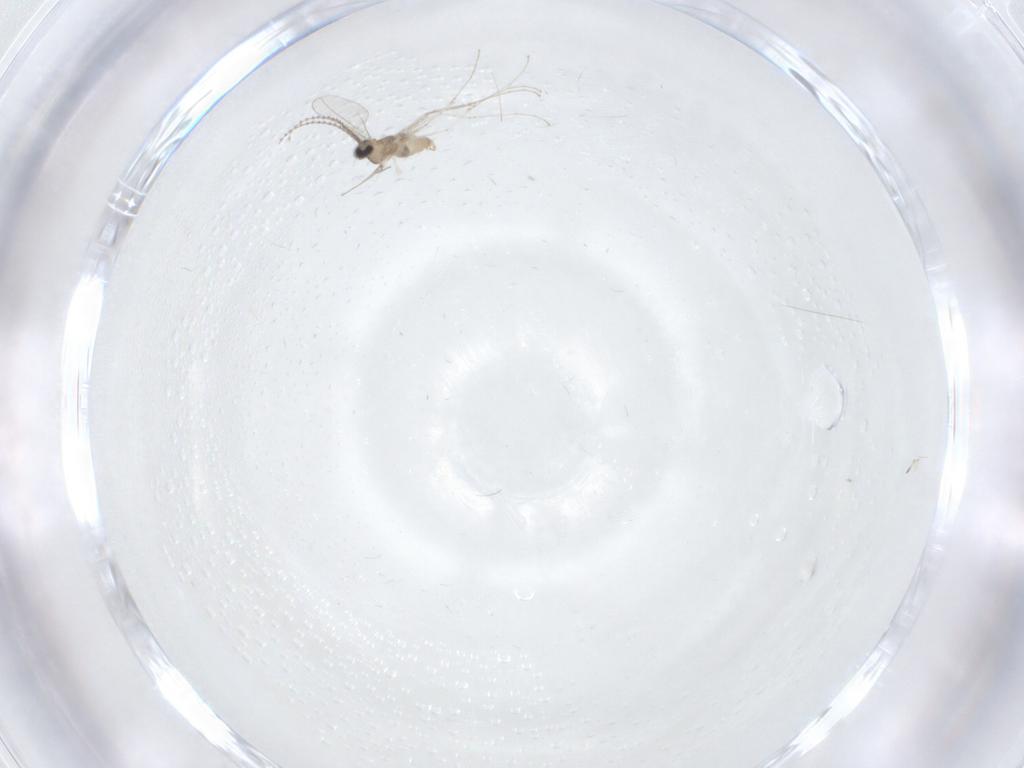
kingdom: Animalia
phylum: Arthropoda
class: Insecta
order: Diptera
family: Cecidomyiidae
